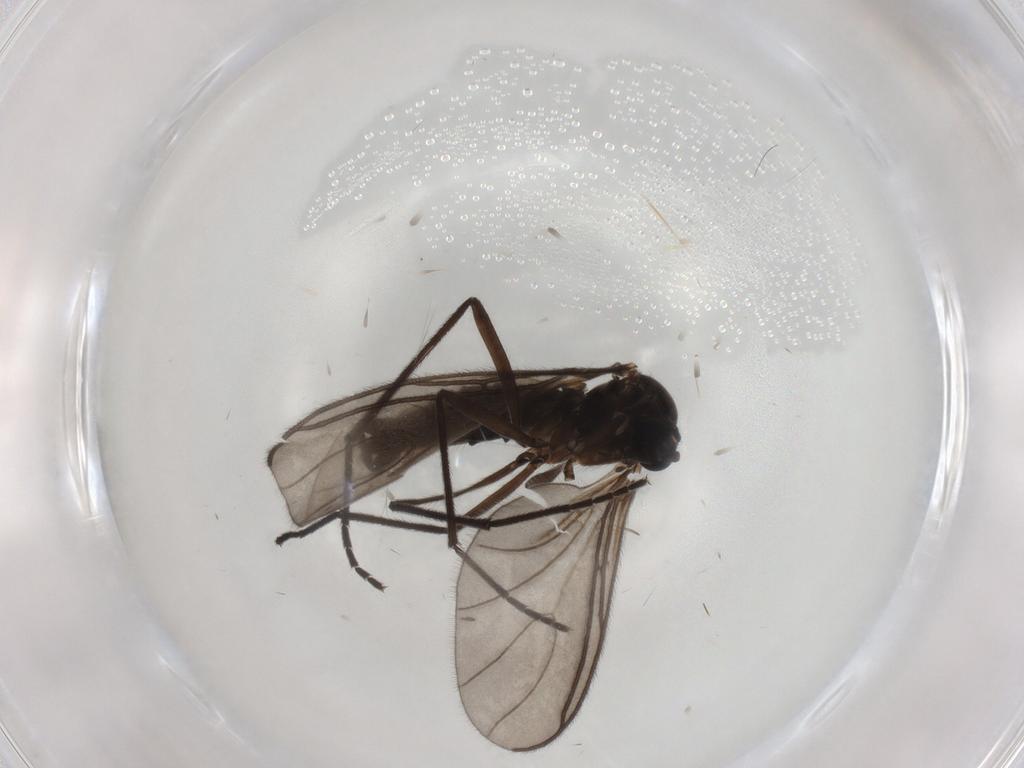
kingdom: Animalia
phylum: Arthropoda
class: Insecta
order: Diptera
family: Sciaridae
